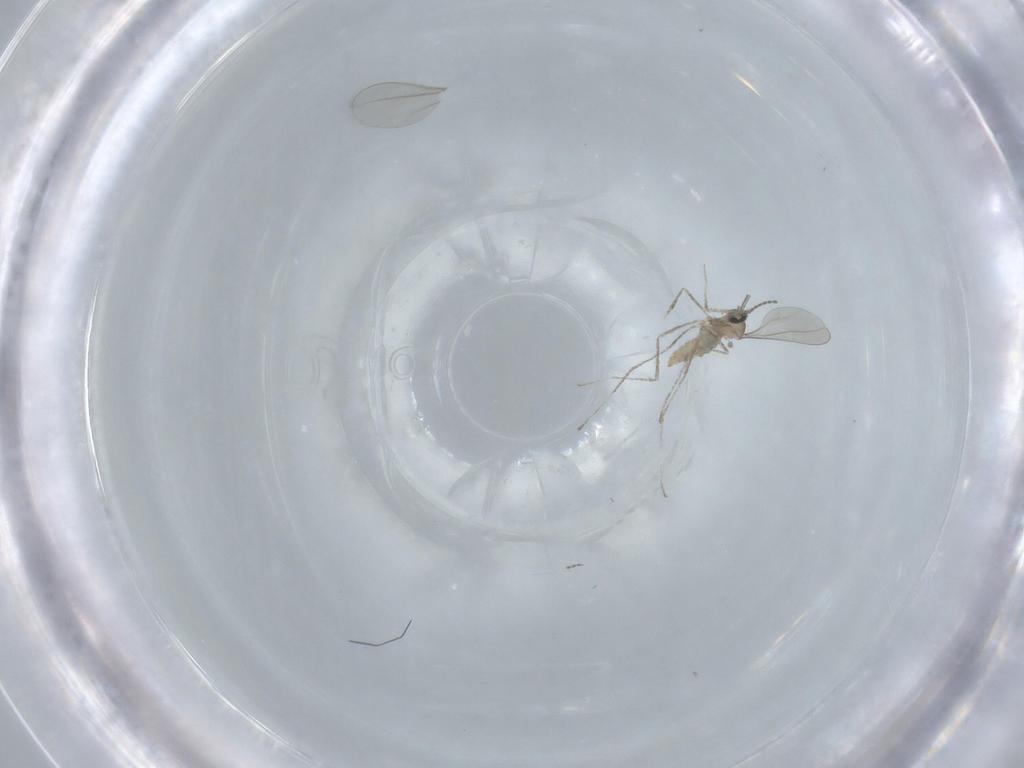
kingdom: Animalia
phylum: Arthropoda
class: Insecta
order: Diptera
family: Cecidomyiidae
